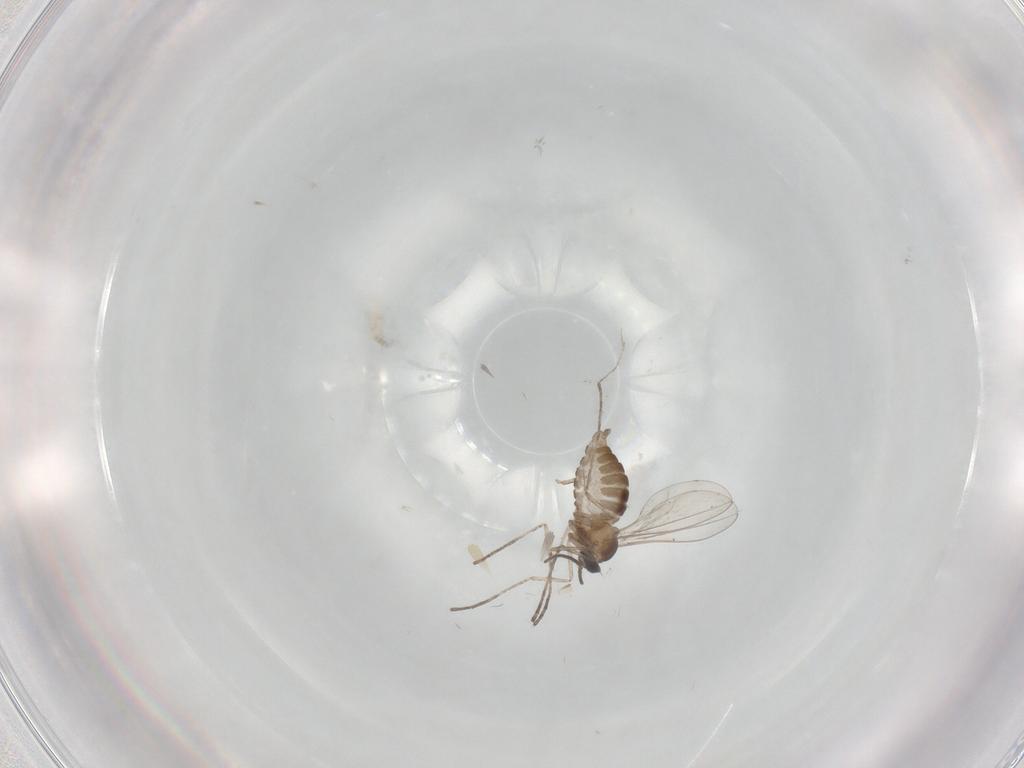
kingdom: Animalia
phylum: Arthropoda
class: Insecta
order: Diptera
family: Cecidomyiidae
